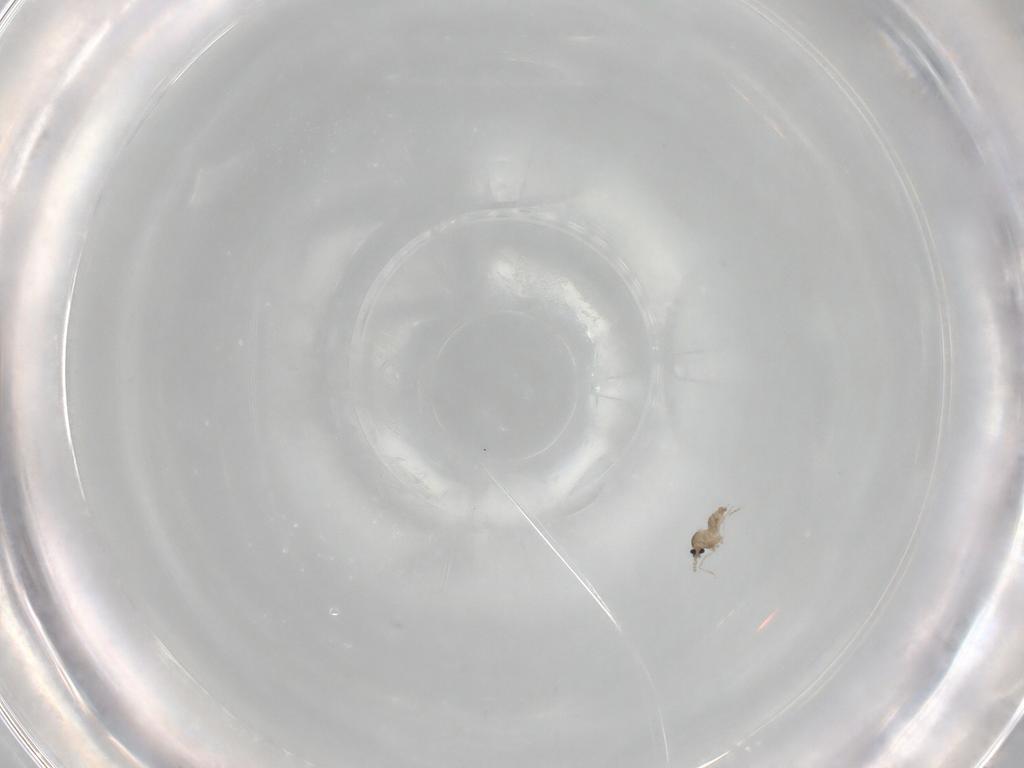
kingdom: Animalia
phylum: Arthropoda
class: Insecta
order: Diptera
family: Cecidomyiidae
